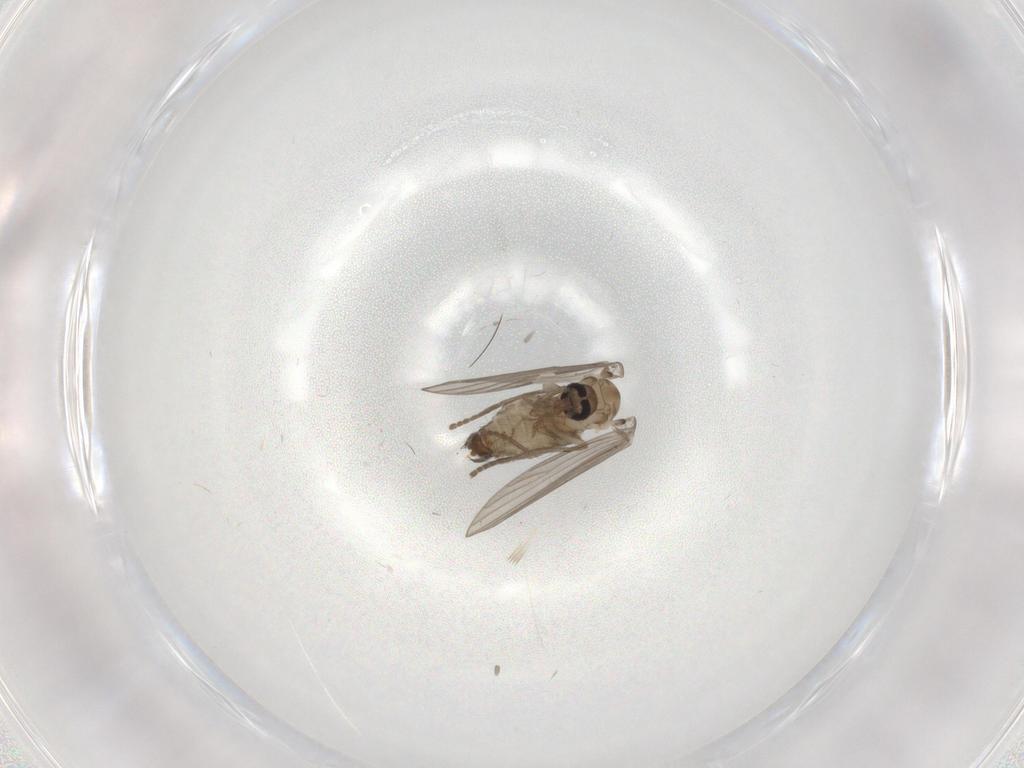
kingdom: Animalia
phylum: Arthropoda
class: Insecta
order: Diptera
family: Psychodidae
